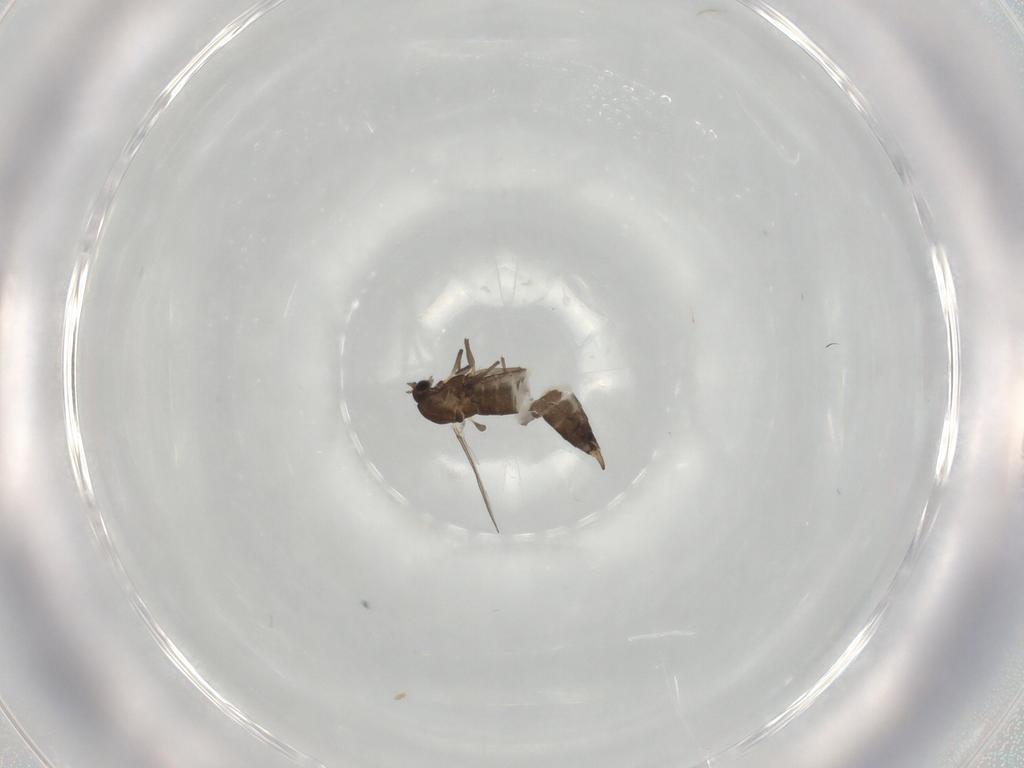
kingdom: Animalia
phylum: Arthropoda
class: Insecta
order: Diptera
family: Chironomidae
